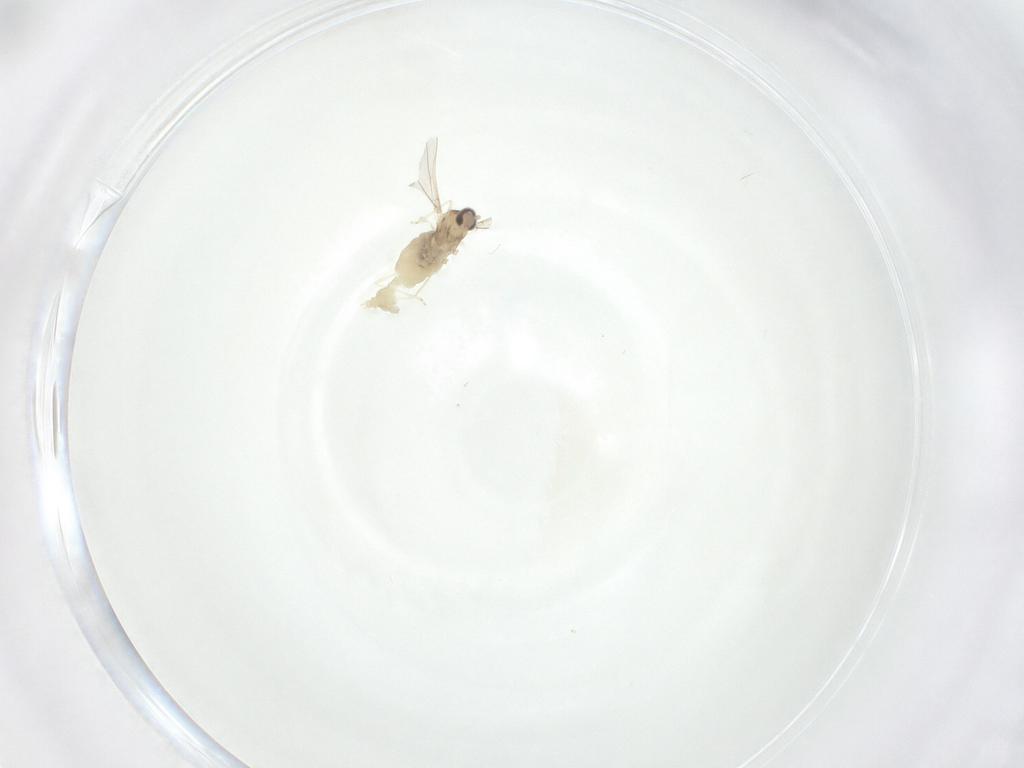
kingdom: Animalia
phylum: Arthropoda
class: Insecta
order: Diptera
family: Cecidomyiidae
